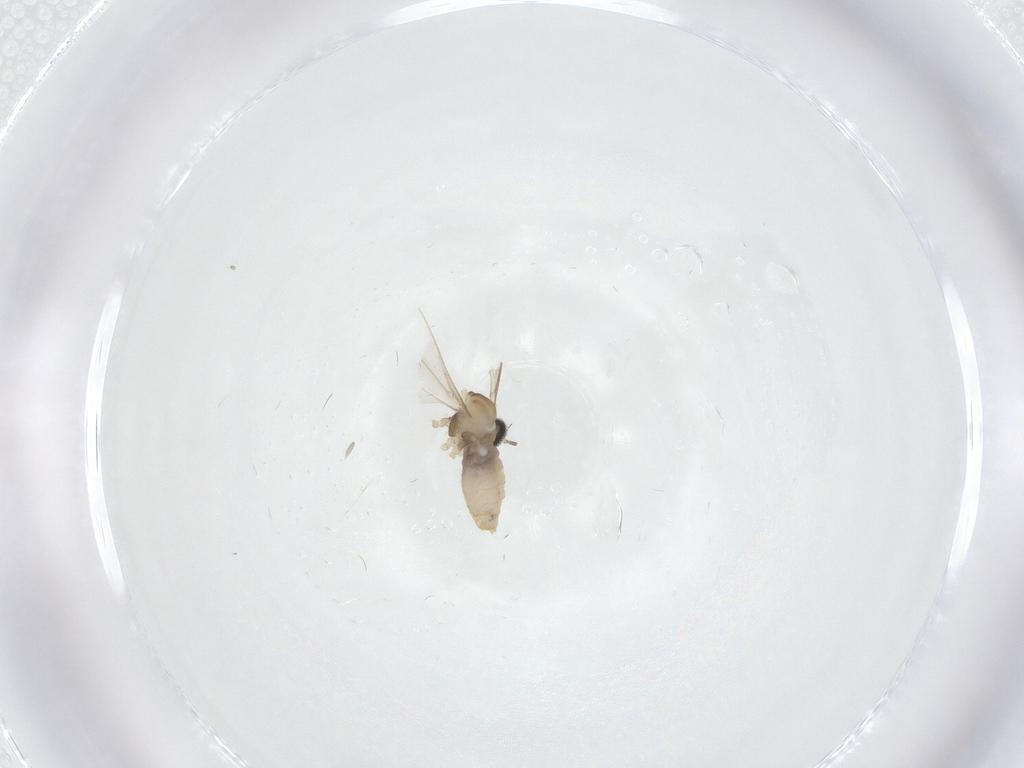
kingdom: Animalia
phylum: Arthropoda
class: Insecta
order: Diptera
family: Cecidomyiidae
